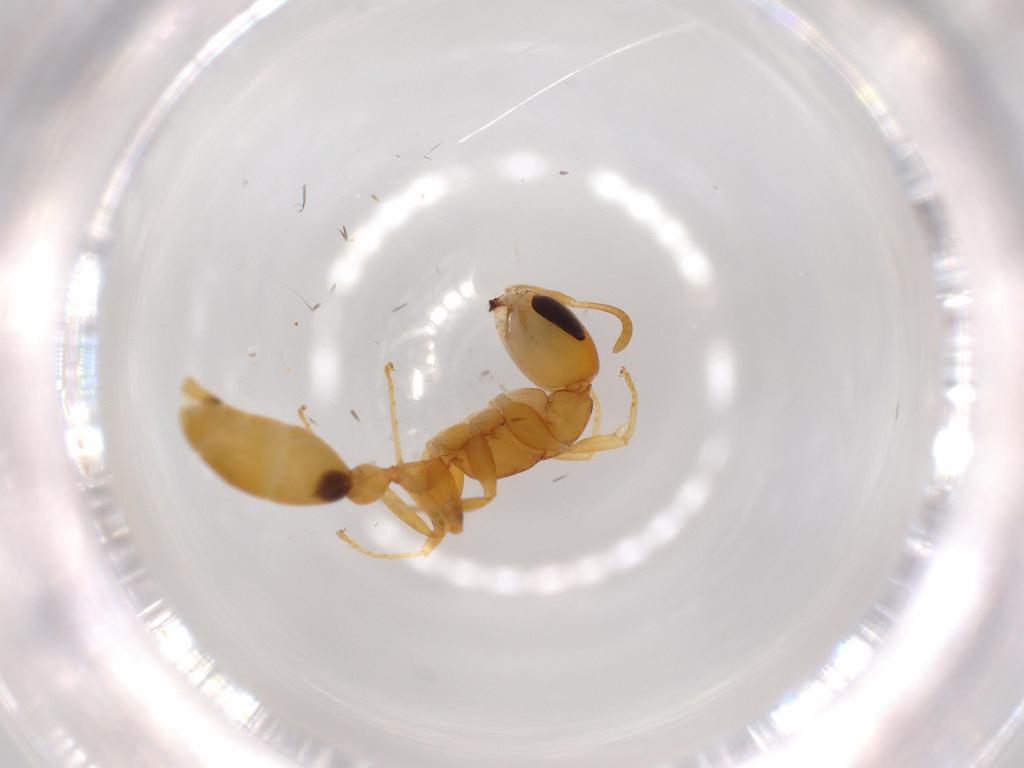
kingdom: Animalia
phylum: Arthropoda
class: Insecta
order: Hymenoptera
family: Formicidae
